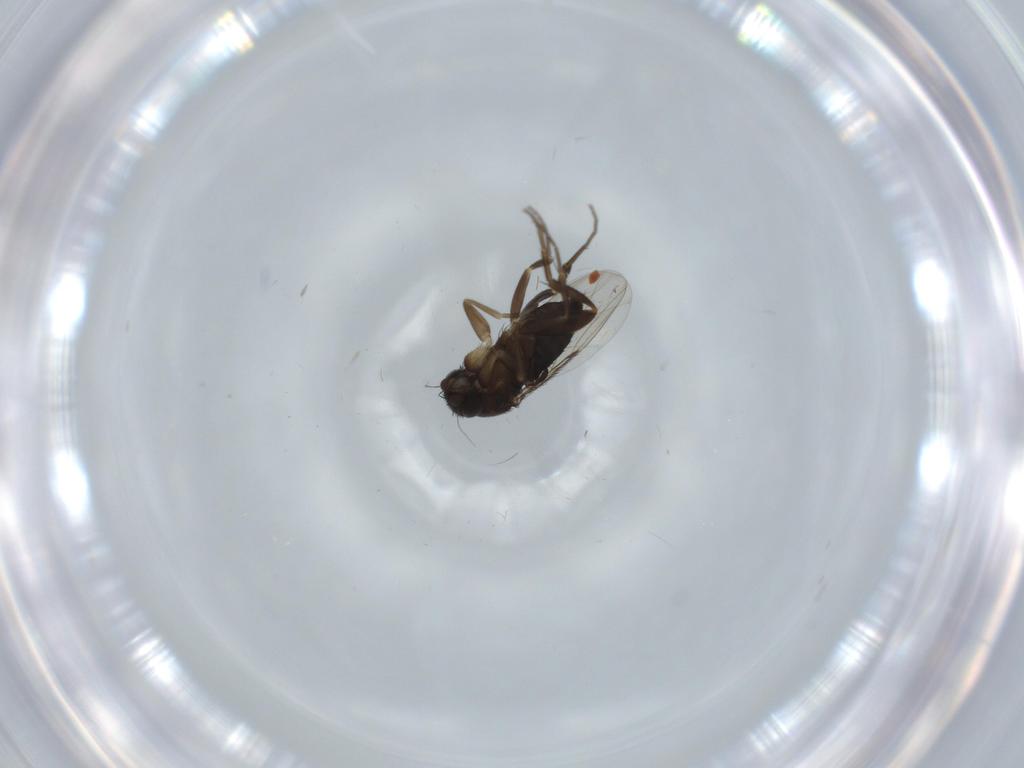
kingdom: Animalia
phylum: Arthropoda
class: Insecta
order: Diptera
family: Phoridae
